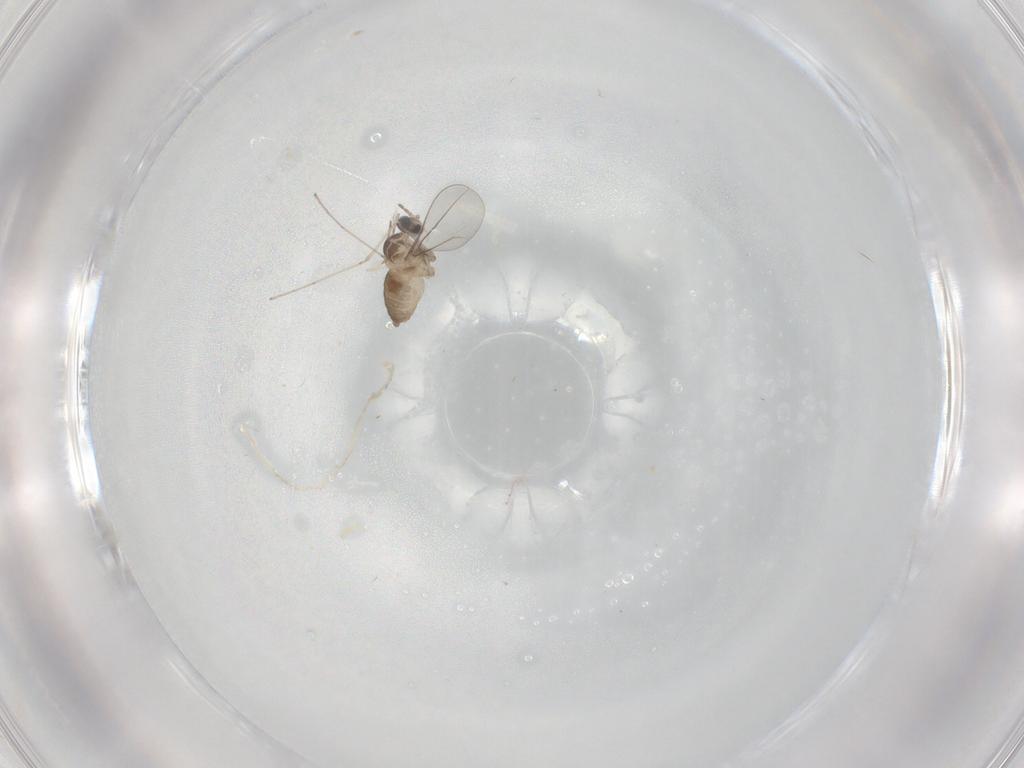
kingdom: Animalia
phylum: Arthropoda
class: Insecta
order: Diptera
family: Cecidomyiidae
